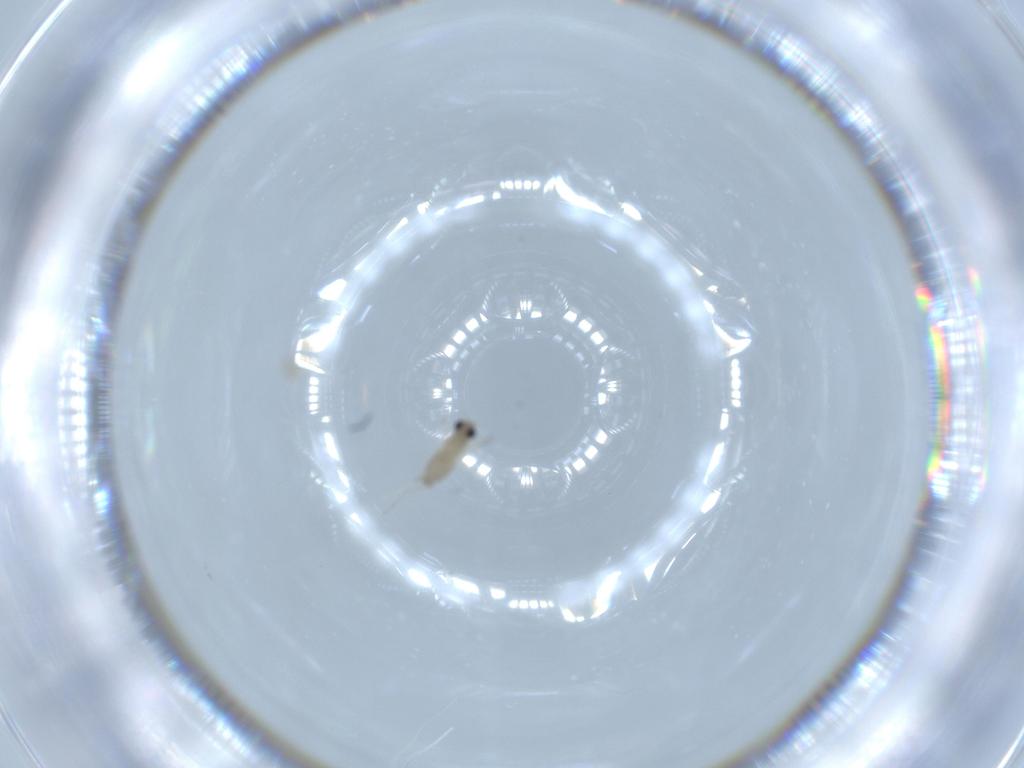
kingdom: Animalia
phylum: Arthropoda
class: Insecta
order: Diptera
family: Cecidomyiidae
